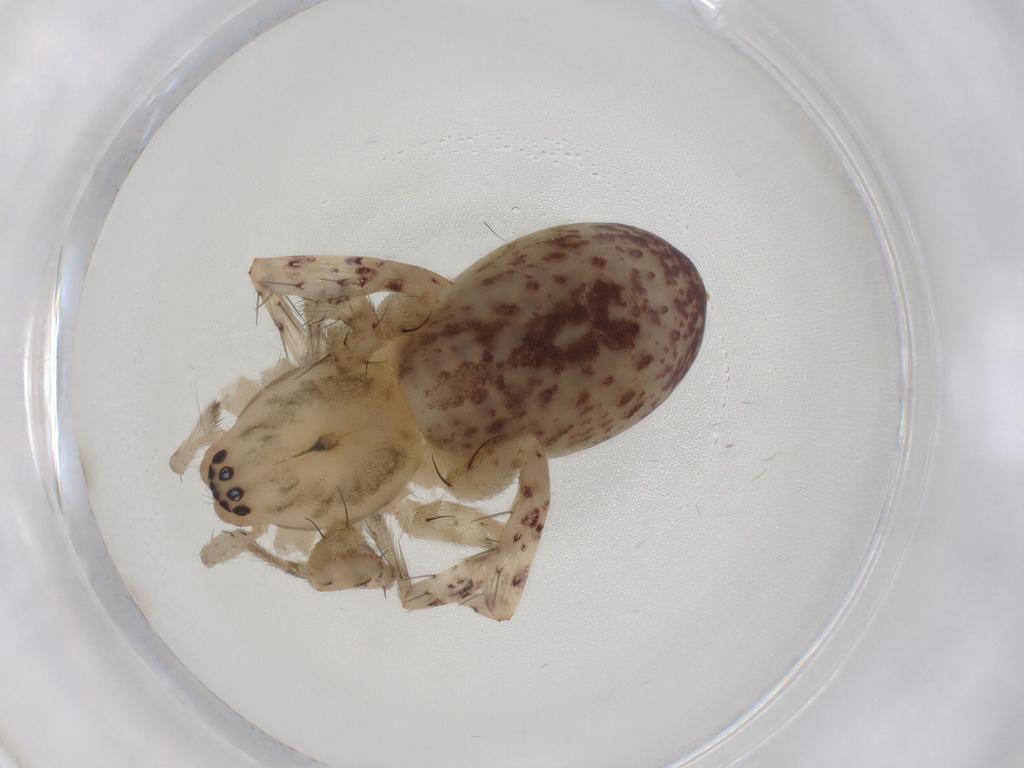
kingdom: Animalia
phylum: Arthropoda
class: Arachnida
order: Araneae
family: Anyphaenidae
